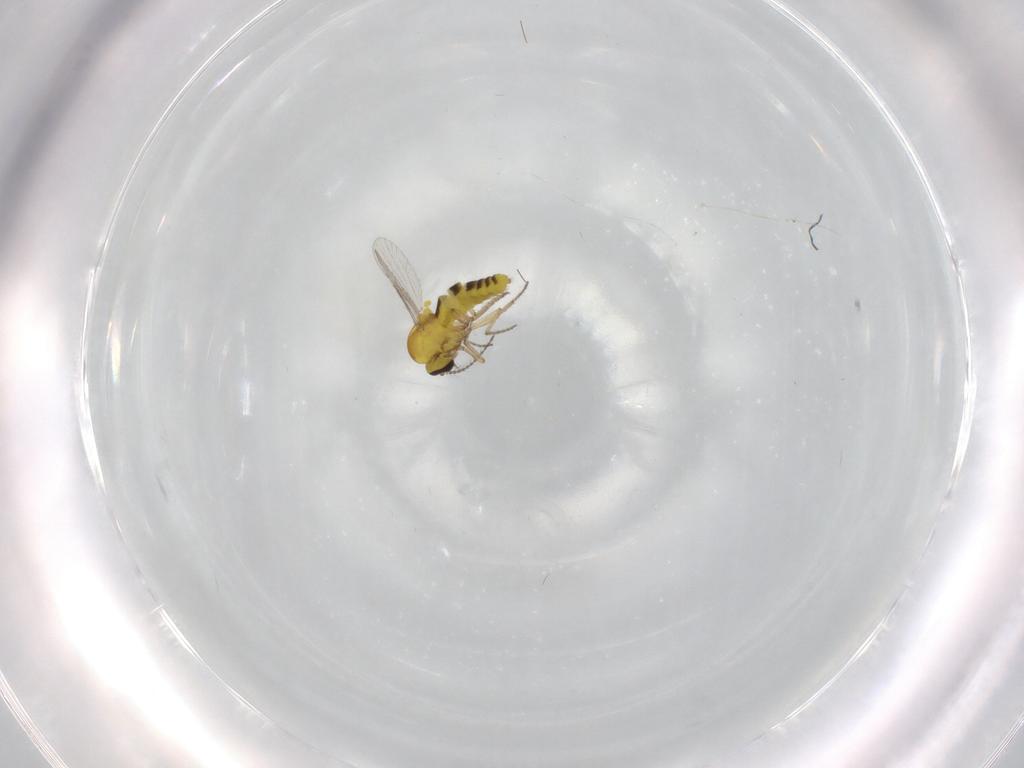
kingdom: Animalia
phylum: Arthropoda
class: Insecta
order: Diptera
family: Ceratopogonidae
